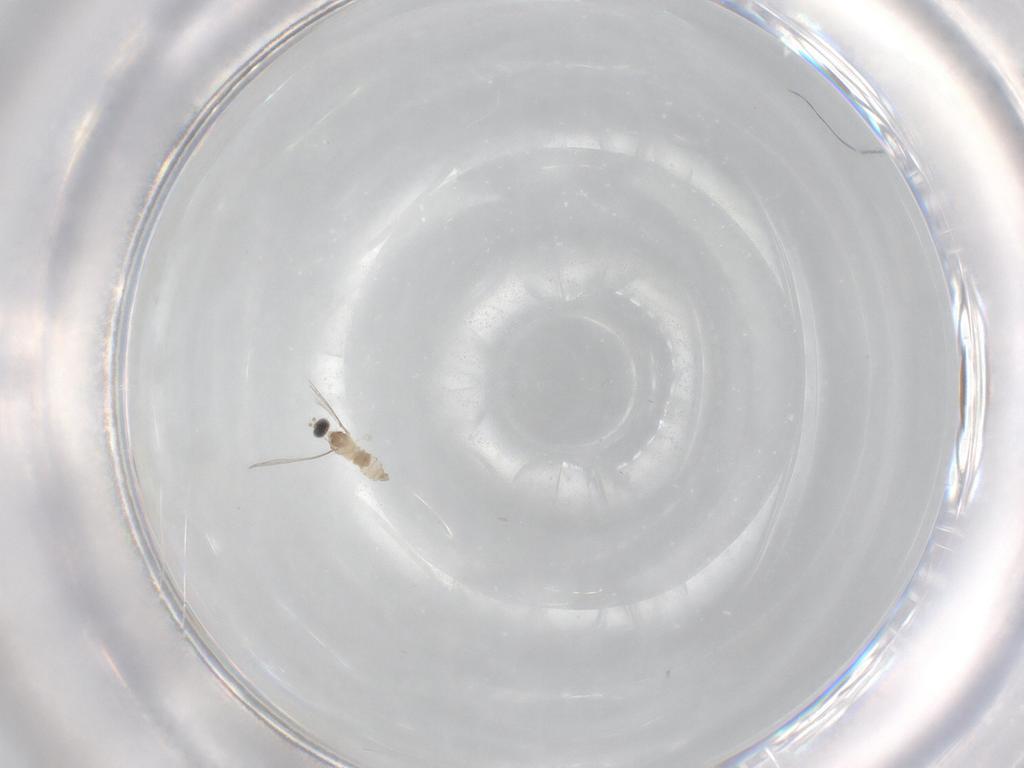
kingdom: Animalia
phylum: Arthropoda
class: Insecta
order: Diptera
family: Cecidomyiidae
